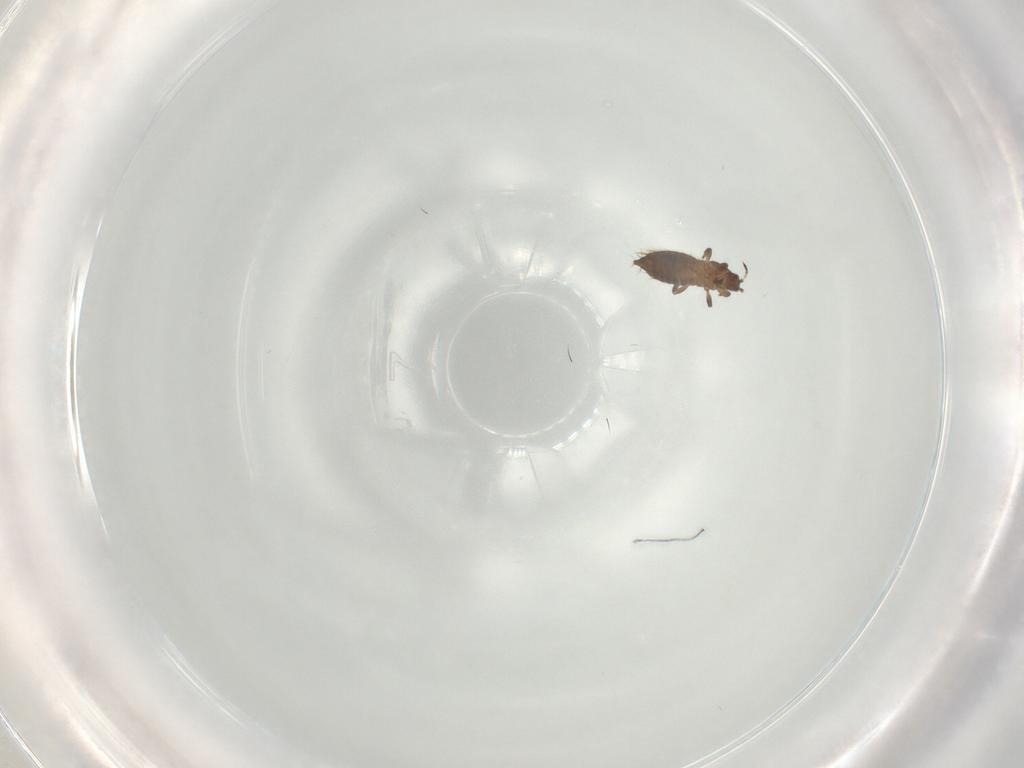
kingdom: Animalia
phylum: Arthropoda
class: Insecta
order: Thysanoptera
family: Thripidae
